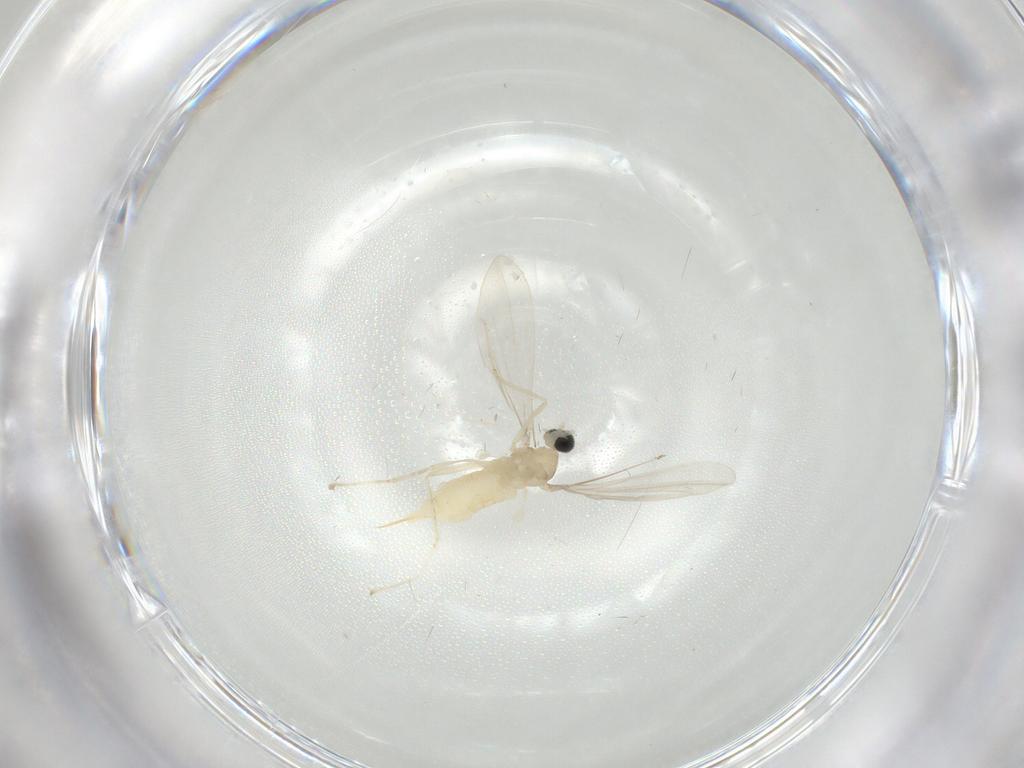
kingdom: Animalia
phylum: Arthropoda
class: Insecta
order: Diptera
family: Cecidomyiidae
